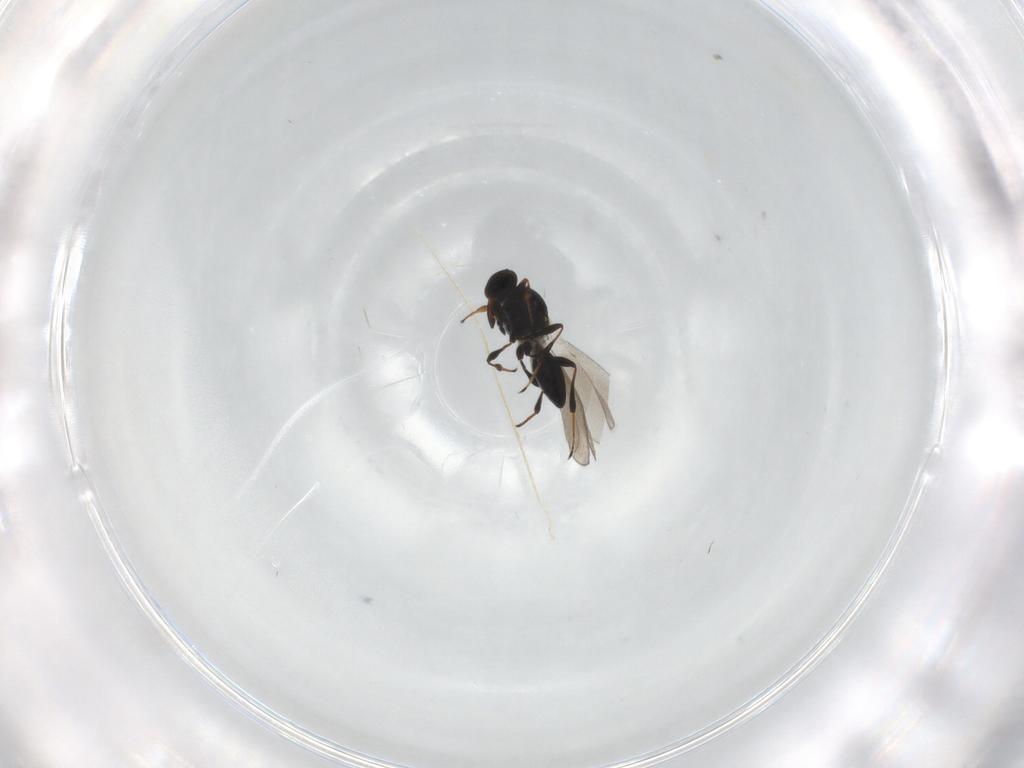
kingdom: Animalia
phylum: Arthropoda
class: Insecta
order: Hymenoptera
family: Platygastridae
